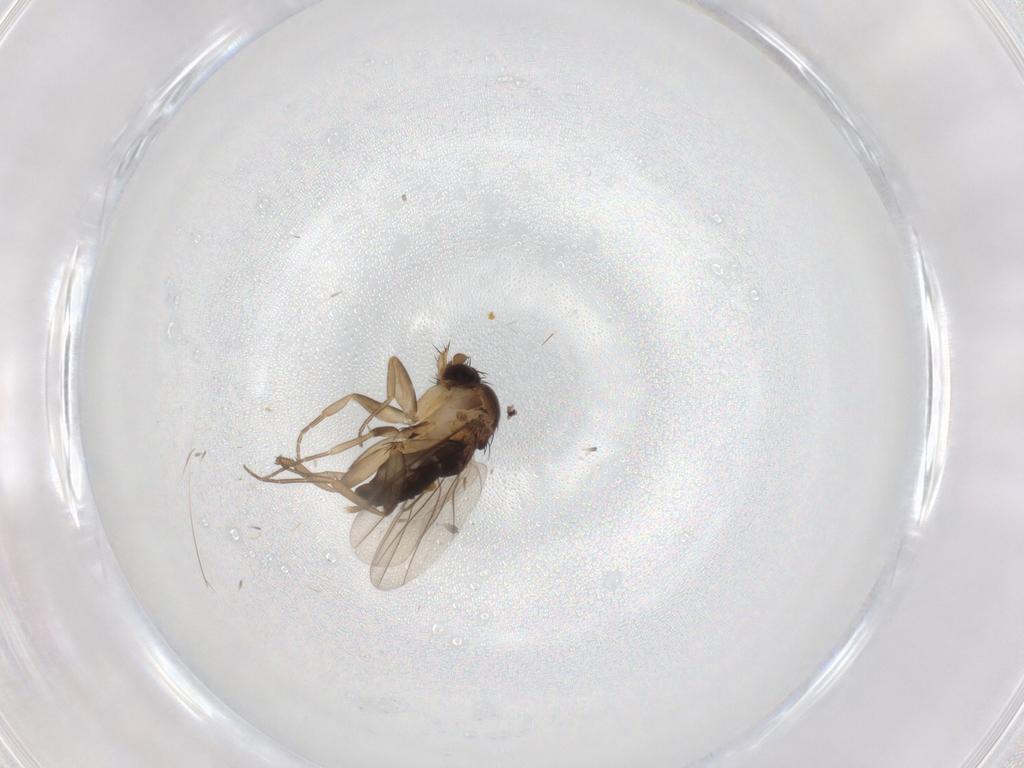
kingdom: Animalia
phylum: Arthropoda
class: Insecta
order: Diptera
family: Phoridae
